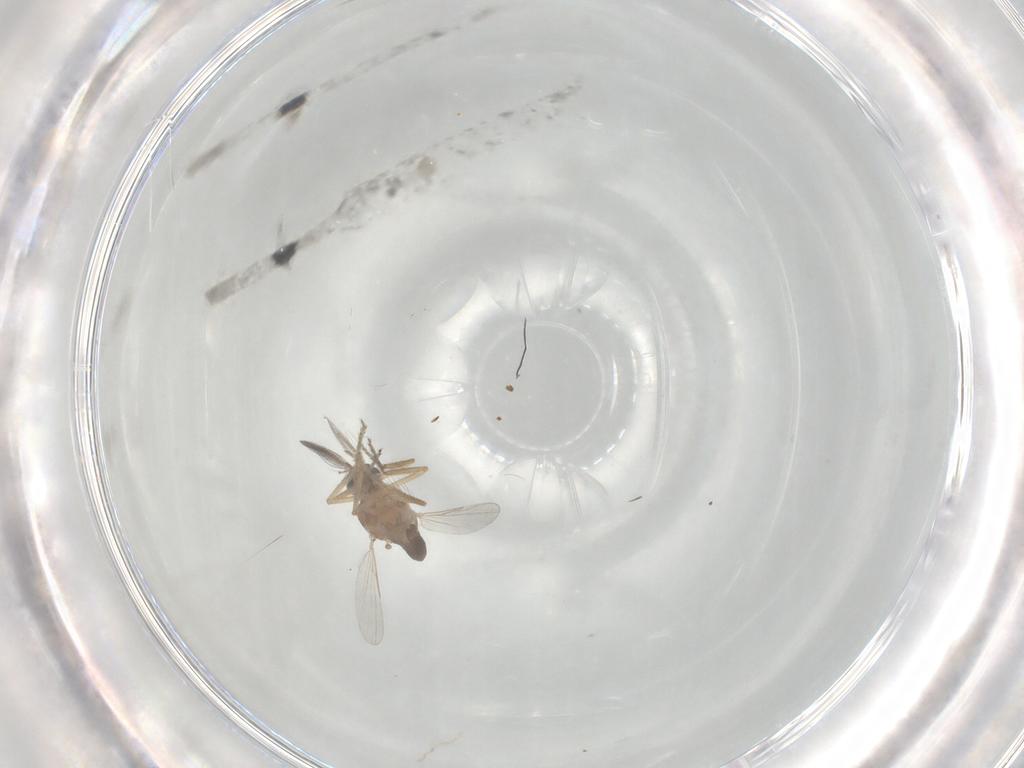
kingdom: Animalia
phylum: Arthropoda
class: Insecta
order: Diptera
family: Ceratopogonidae
